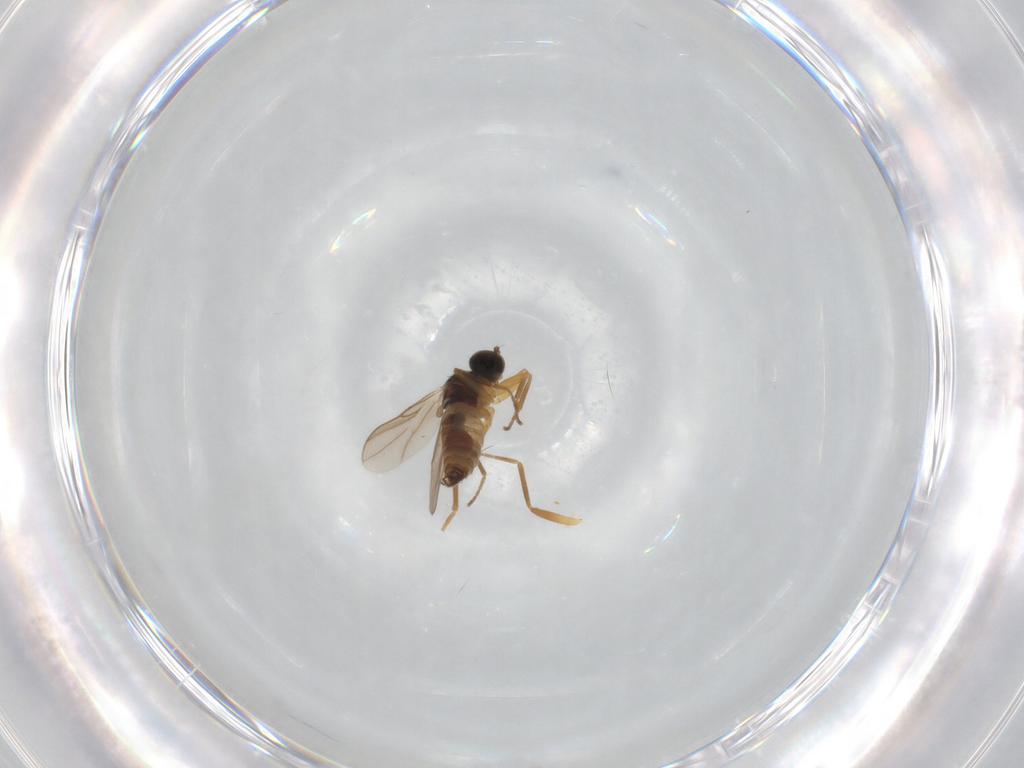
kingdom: Animalia
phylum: Arthropoda
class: Insecta
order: Diptera
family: Hybotidae
